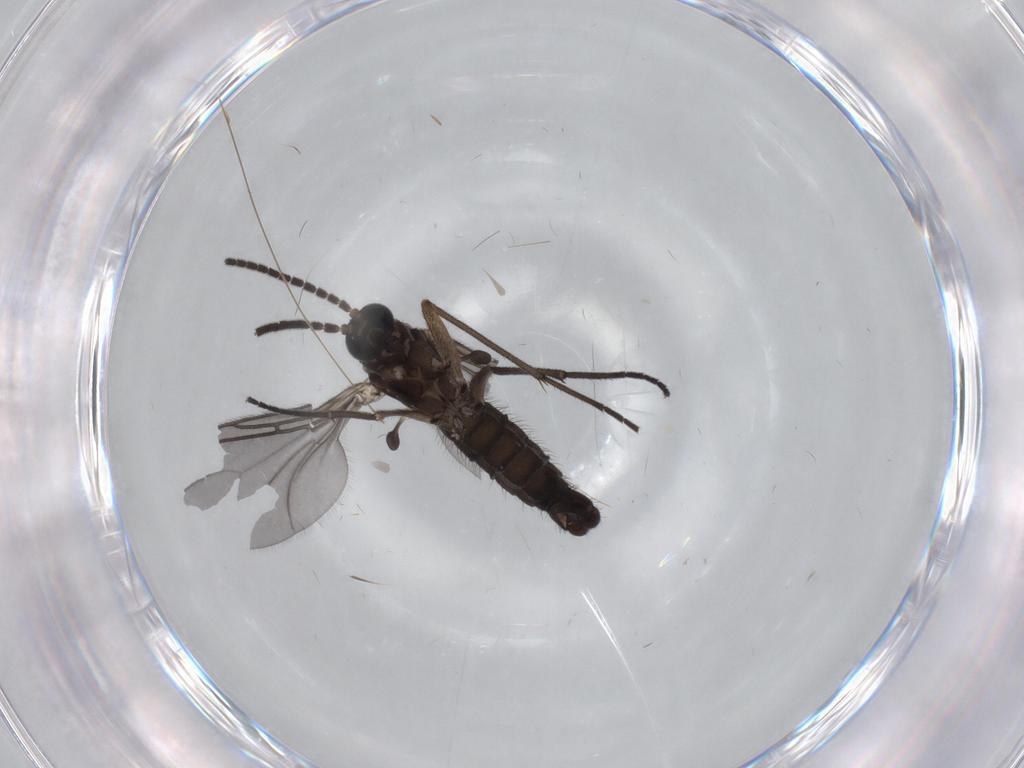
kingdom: Animalia
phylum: Arthropoda
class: Insecta
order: Diptera
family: Sciaridae
